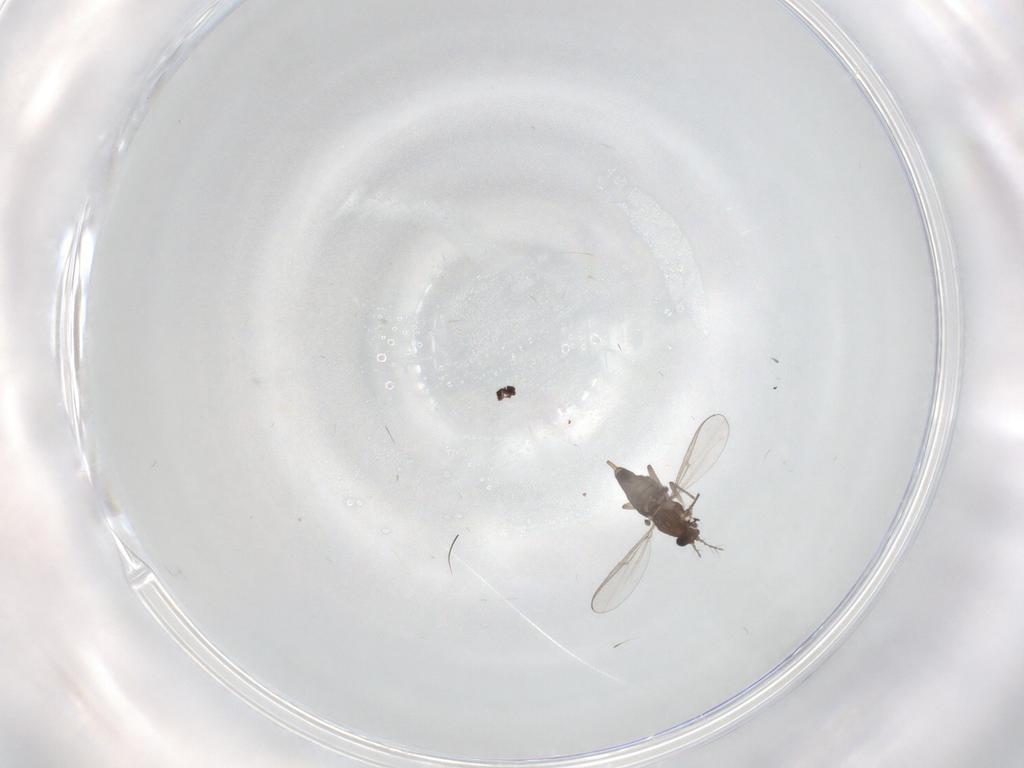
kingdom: Animalia
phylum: Arthropoda
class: Insecta
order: Diptera
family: Chironomidae
